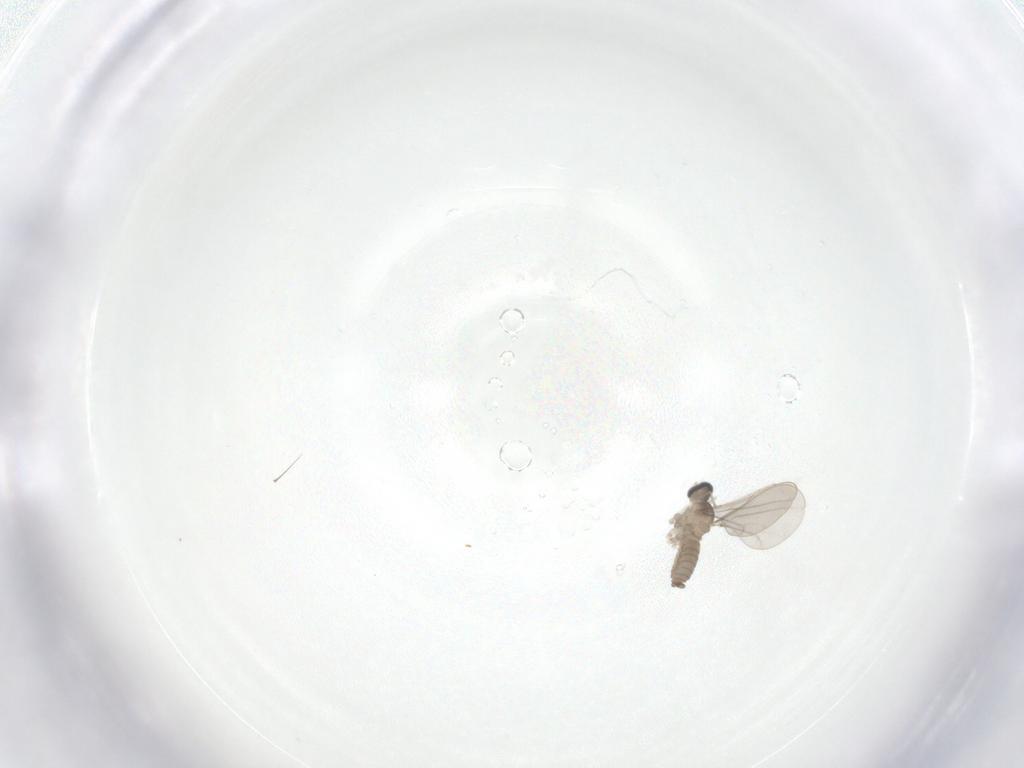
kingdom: Animalia
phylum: Arthropoda
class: Insecta
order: Diptera
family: Cecidomyiidae
